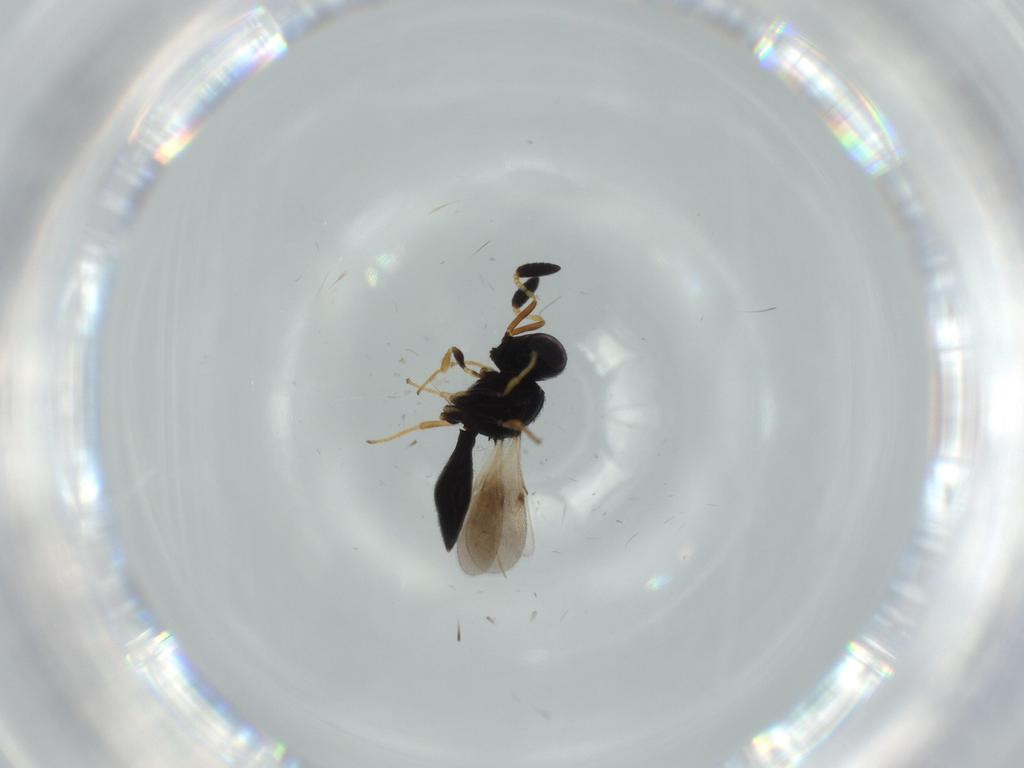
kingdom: Animalia
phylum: Arthropoda
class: Insecta
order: Hymenoptera
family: Scelionidae
